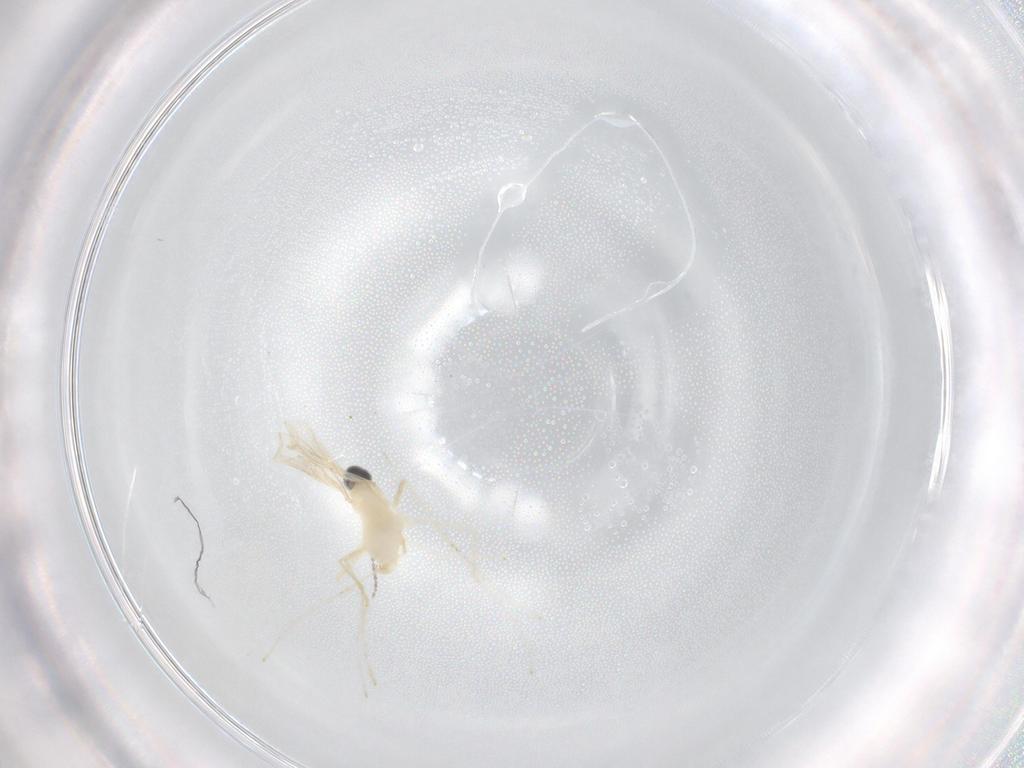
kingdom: Animalia
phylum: Arthropoda
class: Insecta
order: Diptera
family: Cecidomyiidae
